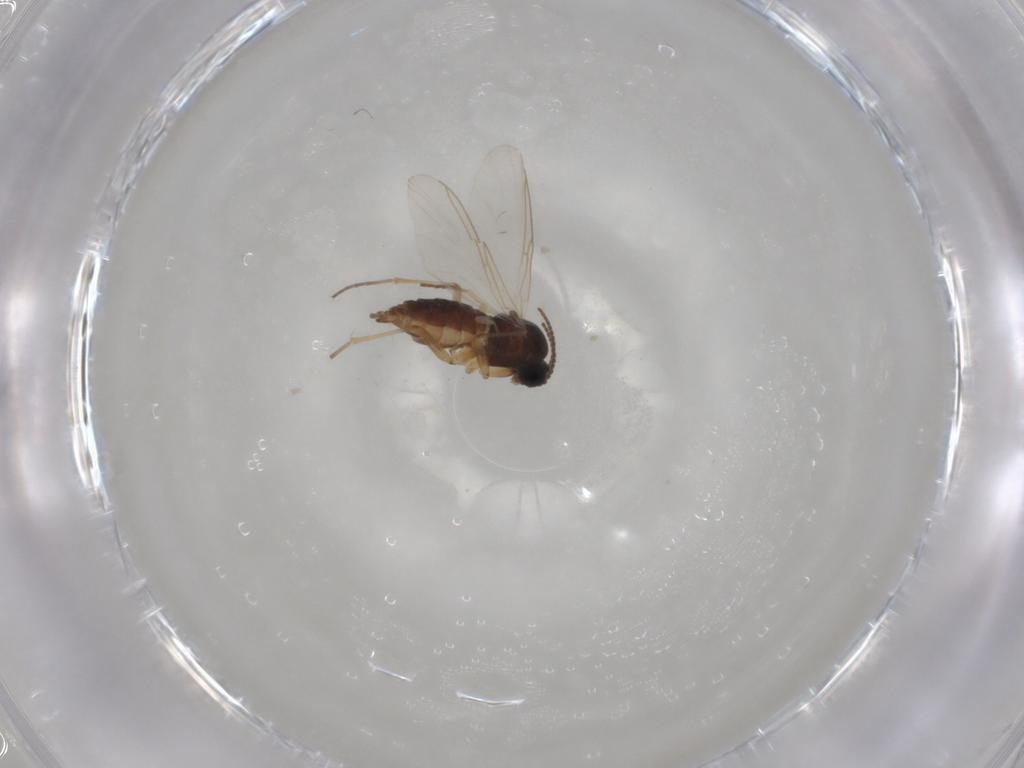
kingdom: Animalia
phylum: Arthropoda
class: Insecta
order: Diptera
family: Sciaridae
